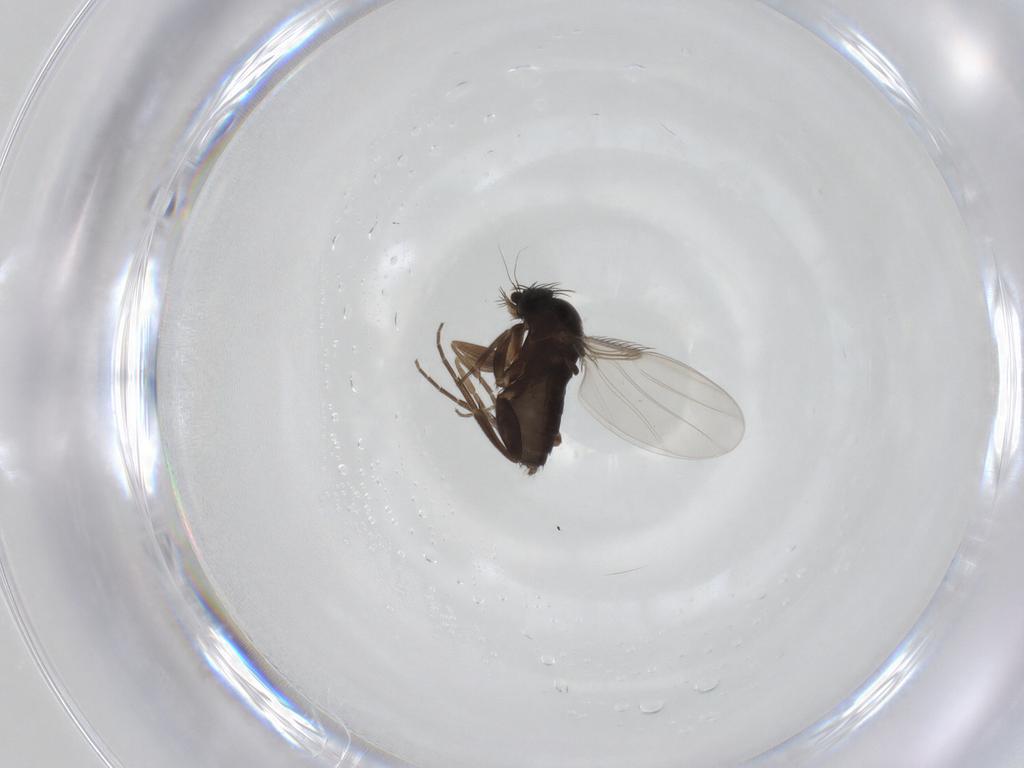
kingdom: Animalia
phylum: Arthropoda
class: Insecta
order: Diptera
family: Phoridae
